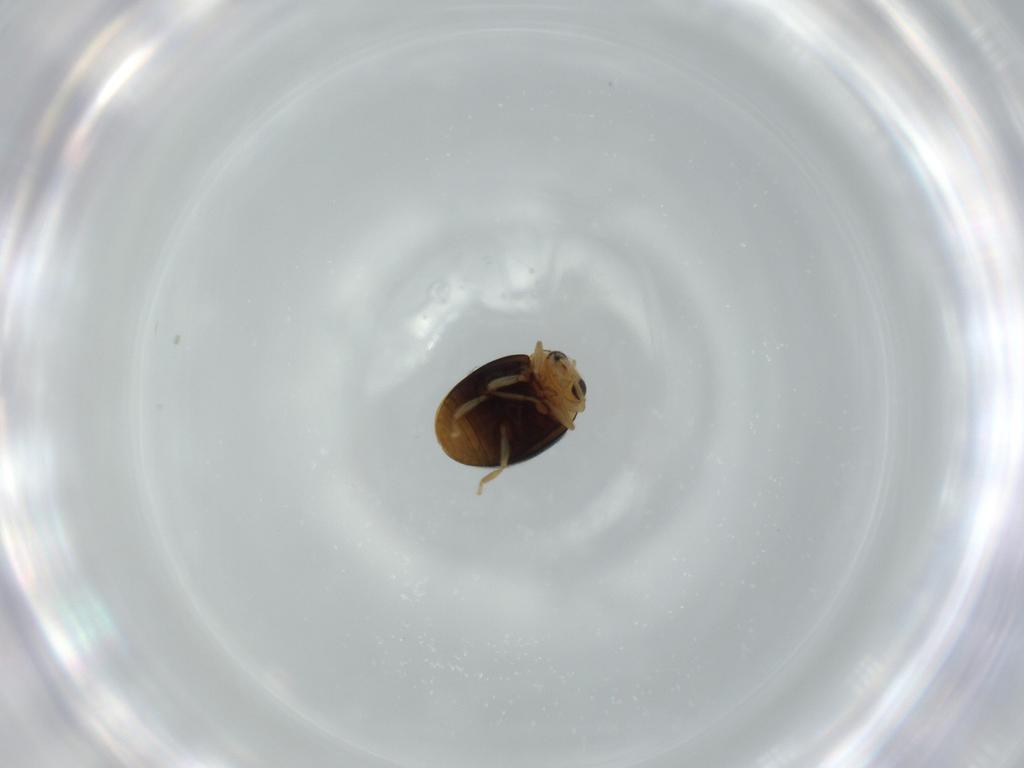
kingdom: Animalia
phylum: Arthropoda
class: Insecta
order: Coleoptera
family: Coccinellidae
